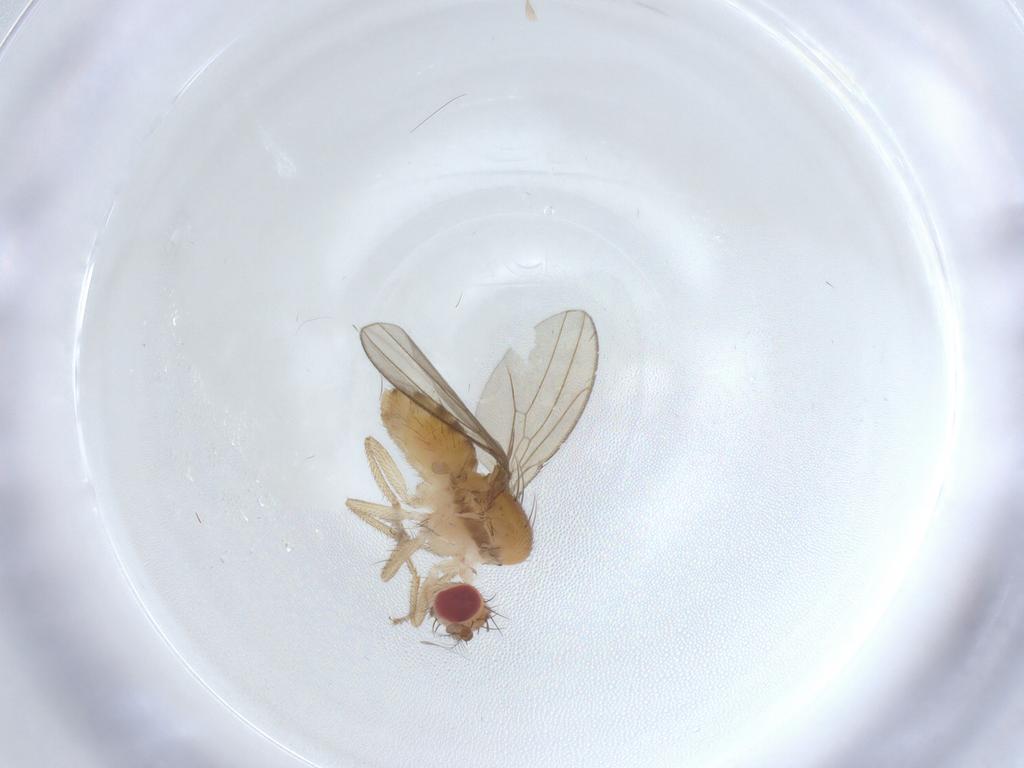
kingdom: Animalia
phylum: Arthropoda
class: Insecta
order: Diptera
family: Drosophilidae
